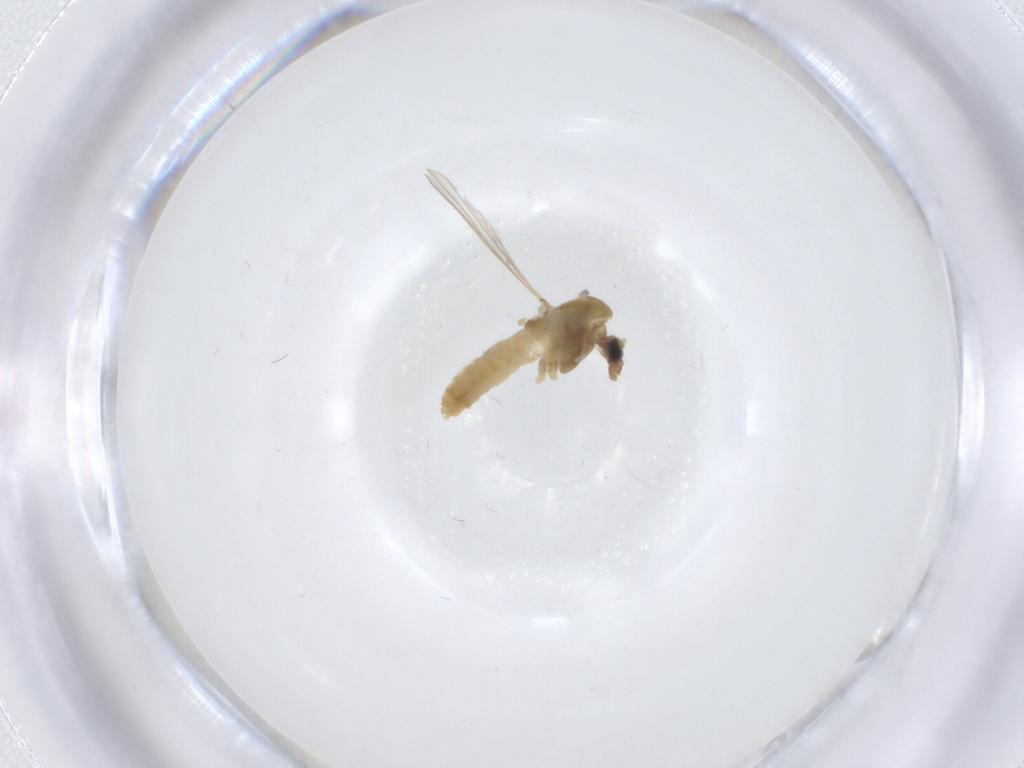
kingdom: Animalia
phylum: Arthropoda
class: Insecta
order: Diptera
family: Chironomidae
